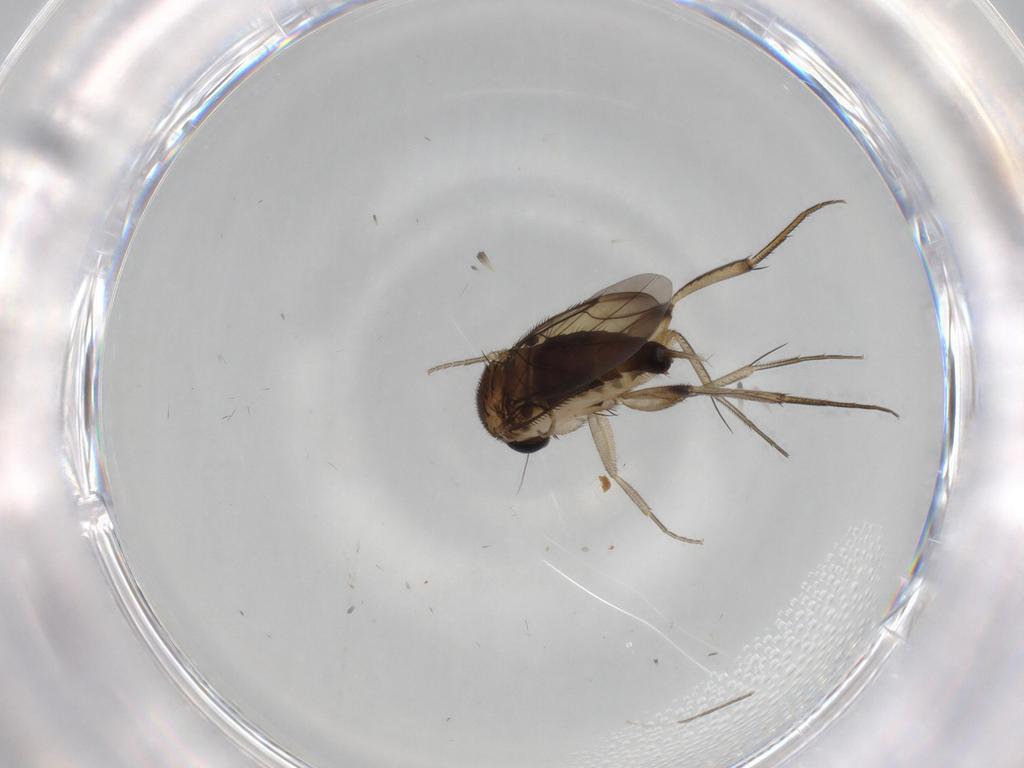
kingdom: Animalia
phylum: Arthropoda
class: Insecta
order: Diptera
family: Phoridae
